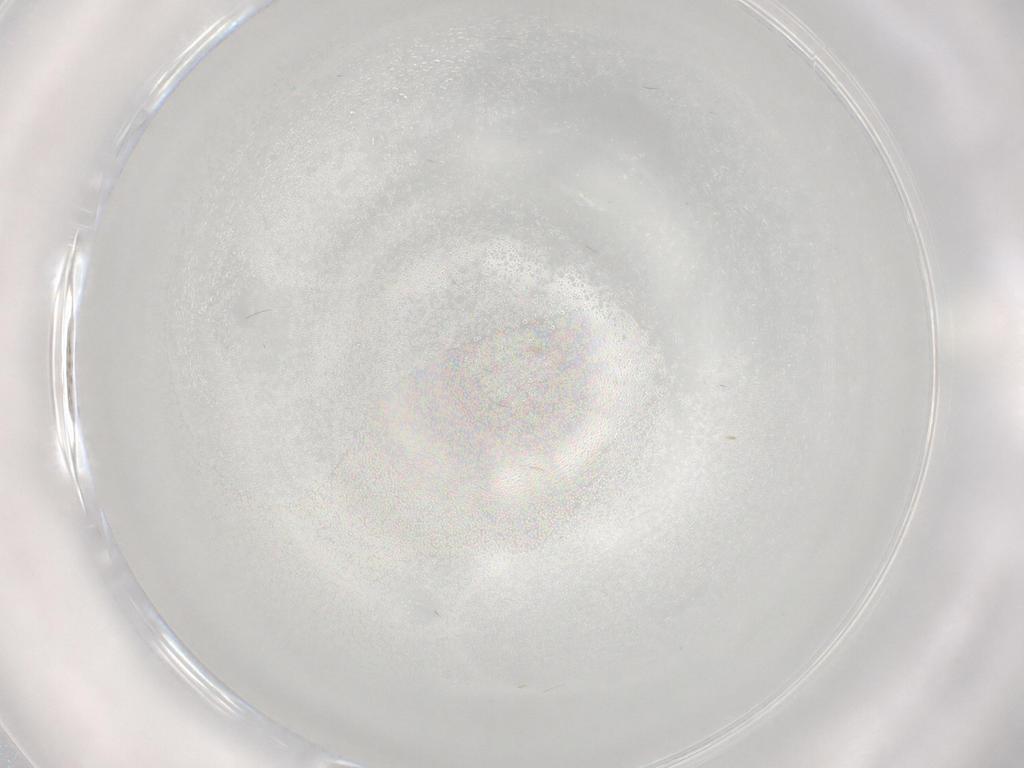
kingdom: Animalia
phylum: Arthropoda
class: Insecta
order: Blattodea
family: Ectobiidae
